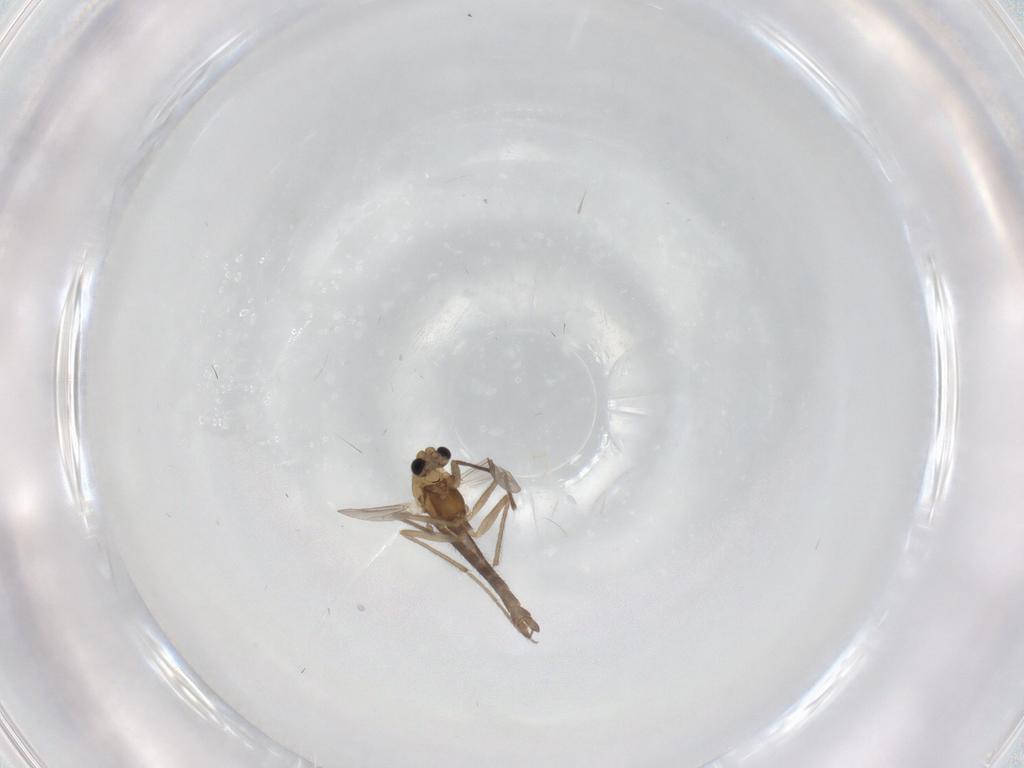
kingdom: Animalia
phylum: Arthropoda
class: Insecta
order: Diptera
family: Chironomidae
